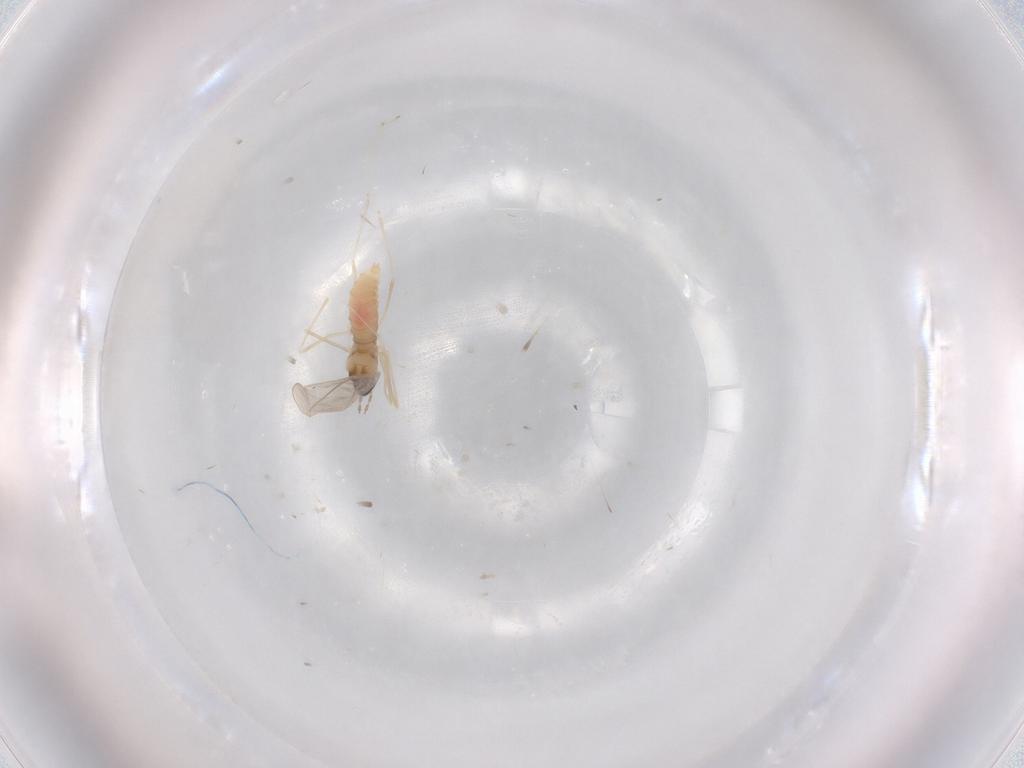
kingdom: Animalia
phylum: Arthropoda
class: Insecta
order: Diptera
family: Cecidomyiidae
